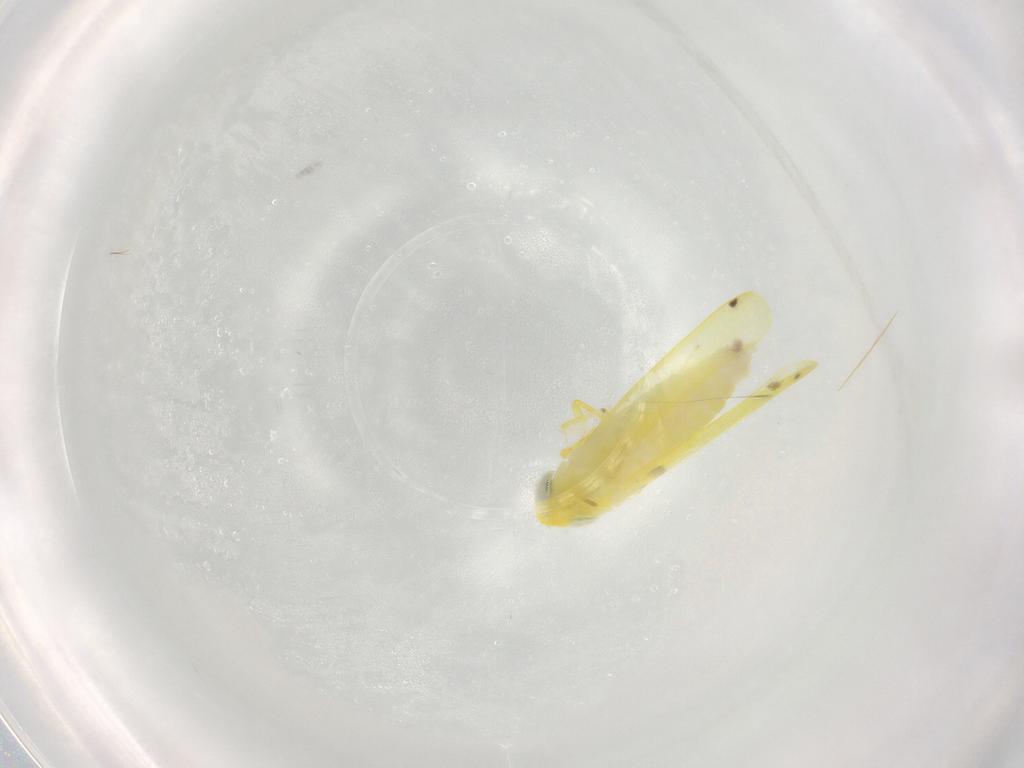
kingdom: Animalia
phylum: Arthropoda
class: Insecta
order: Hemiptera
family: Cicadellidae
